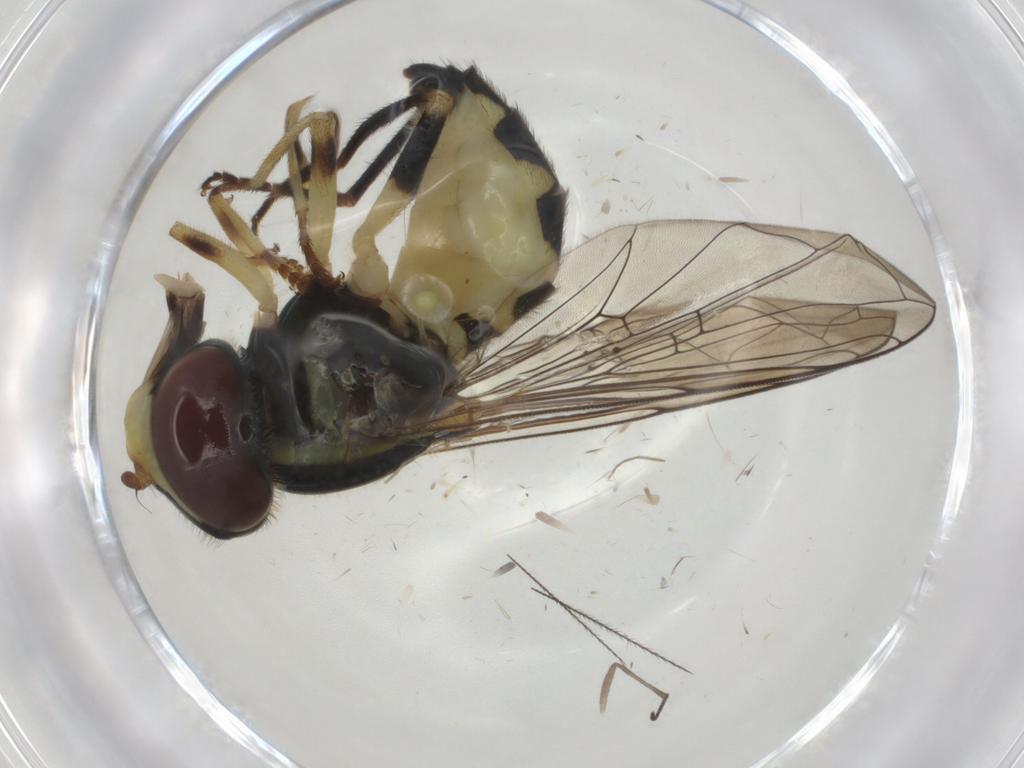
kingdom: Animalia
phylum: Arthropoda
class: Insecta
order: Diptera
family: Syrphidae
